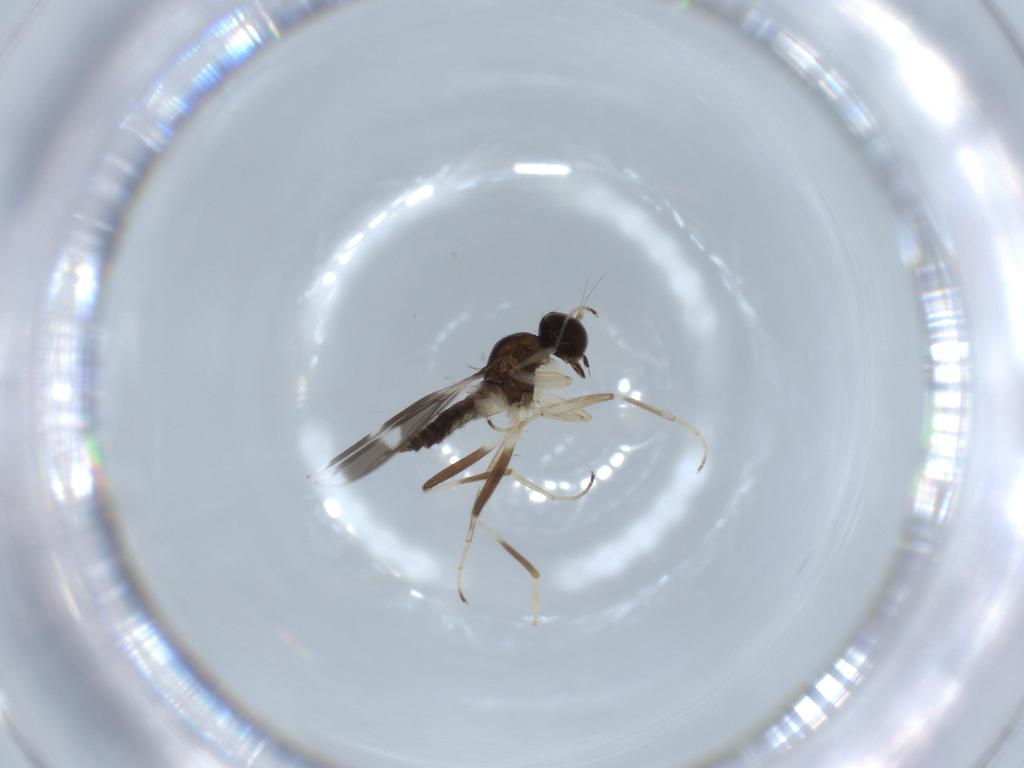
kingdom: Animalia
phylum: Arthropoda
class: Insecta
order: Diptera
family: Hybotidae
